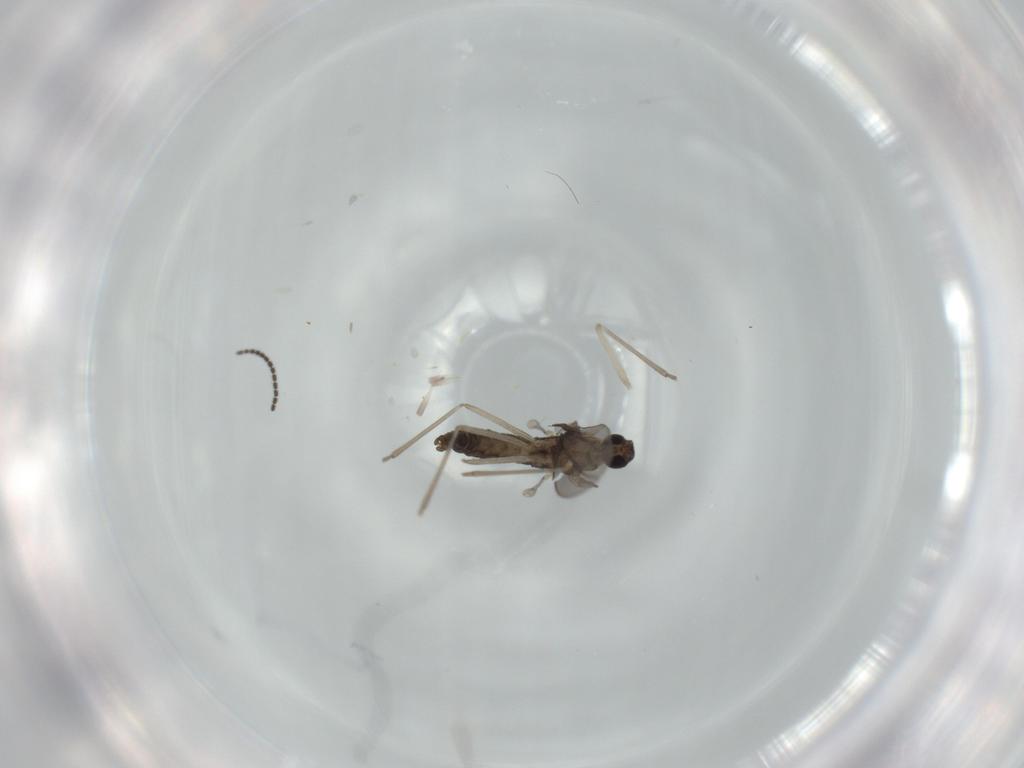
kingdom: Animalia
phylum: Arthropoda
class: Insecta
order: Diptera
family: Cecidomyiidae
